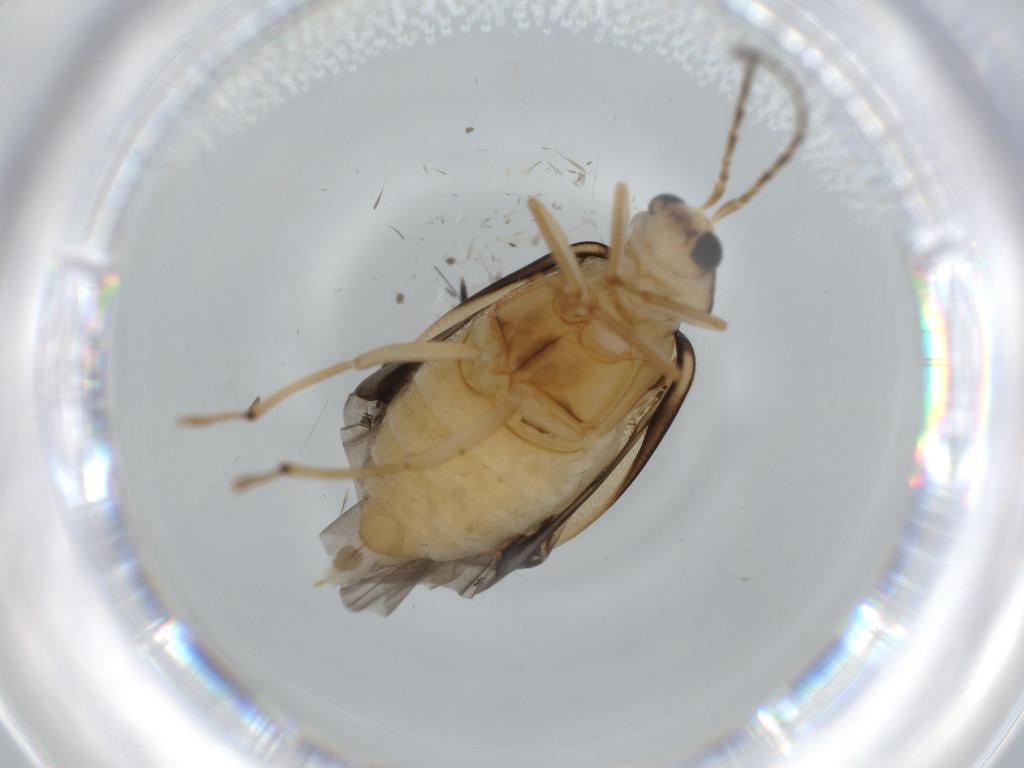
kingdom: Animalia
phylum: Arthropoda
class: Insecta
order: Coleoptera
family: Chrysomelidae
